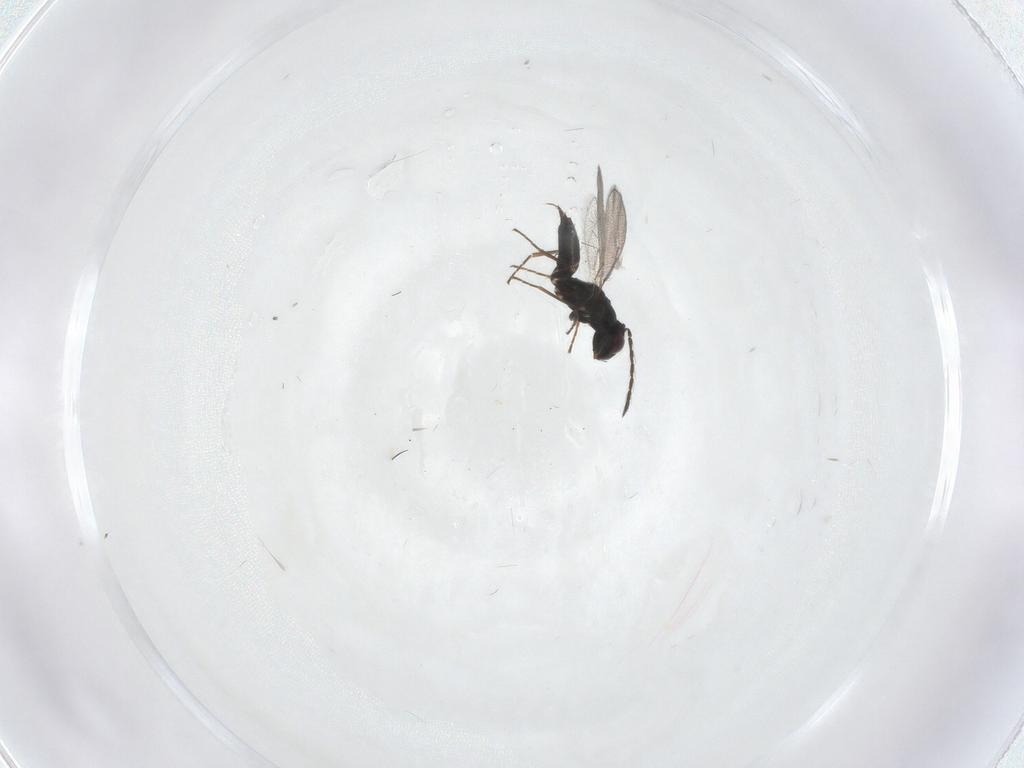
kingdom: Animalia
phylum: Arthropoda
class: Insecta
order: Hymenoptera
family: Eulophidae
